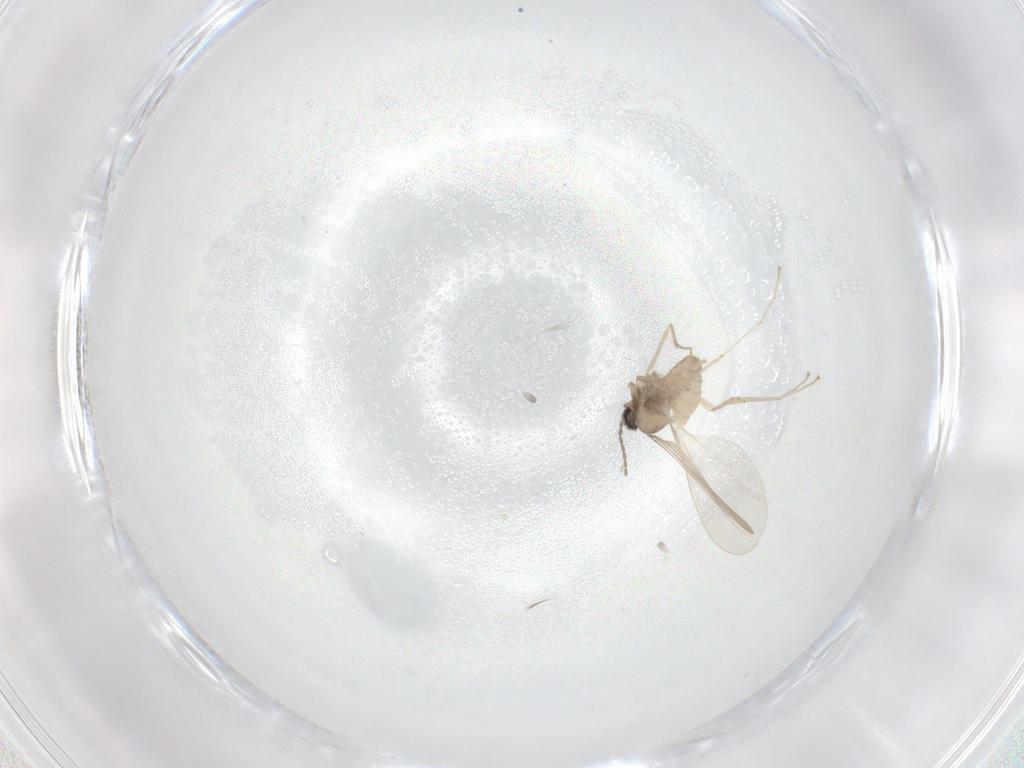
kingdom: Animalia
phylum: Arthropoda
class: Insecta
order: Diptera
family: Cecidomyiidae
